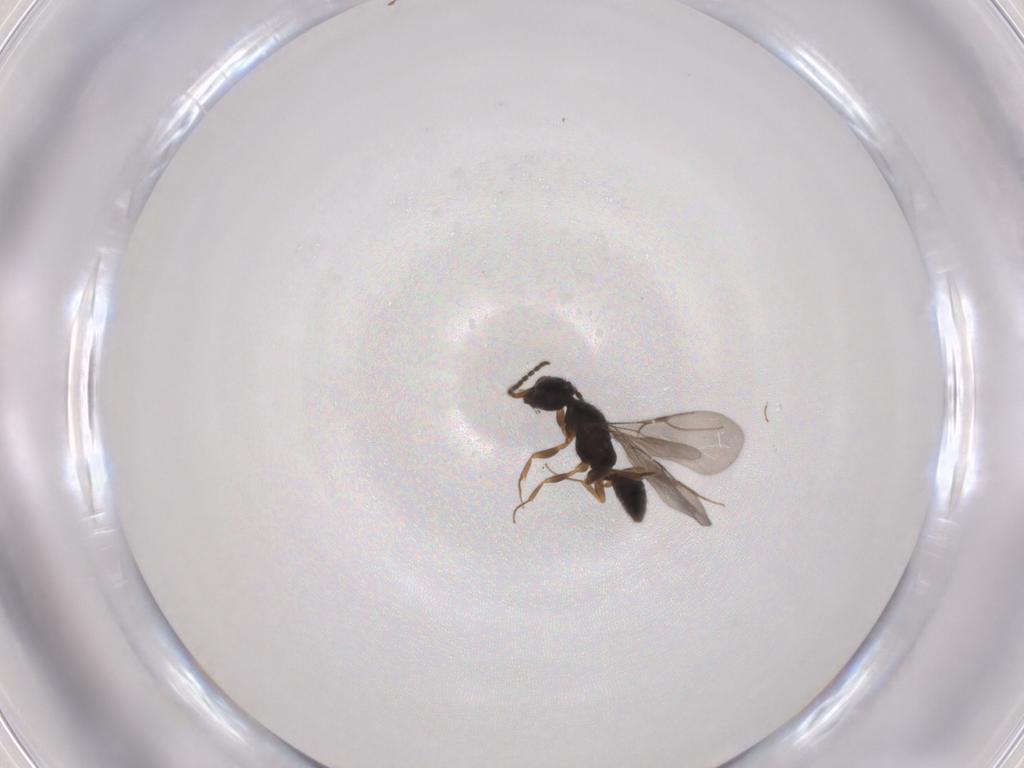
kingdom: Animalia
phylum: Arthropoda
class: Insecta
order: Hymenoptera
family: Bethylidae
